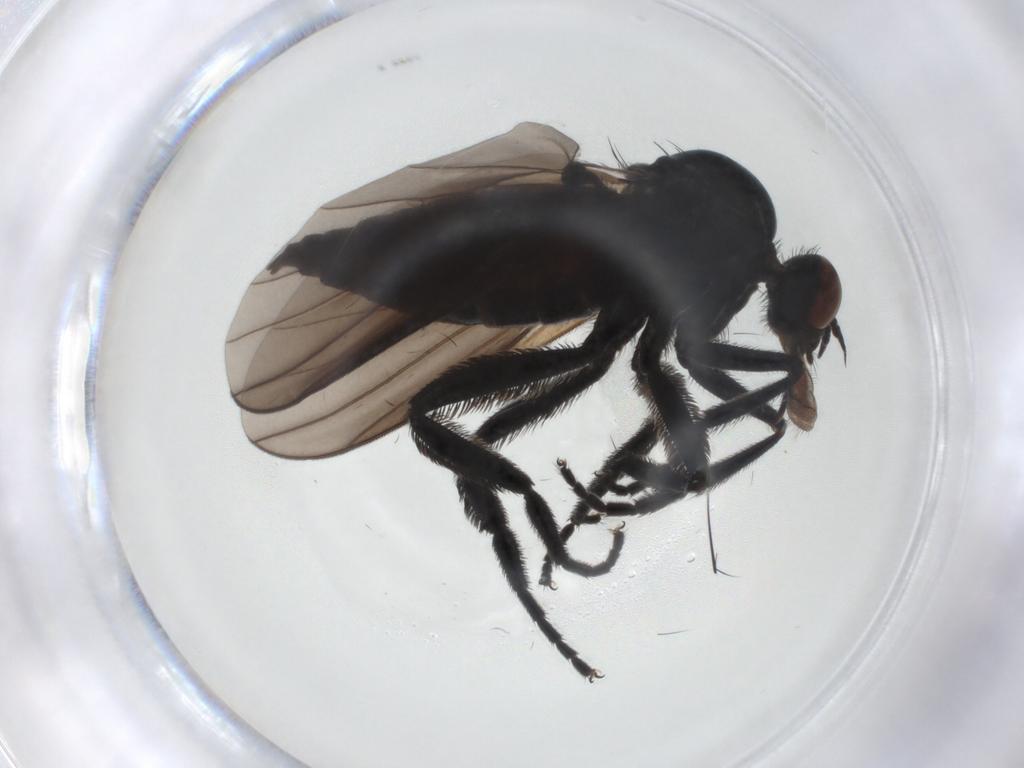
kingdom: Animalia
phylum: Arthropoda
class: Insecta
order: Diptera
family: Empididae
